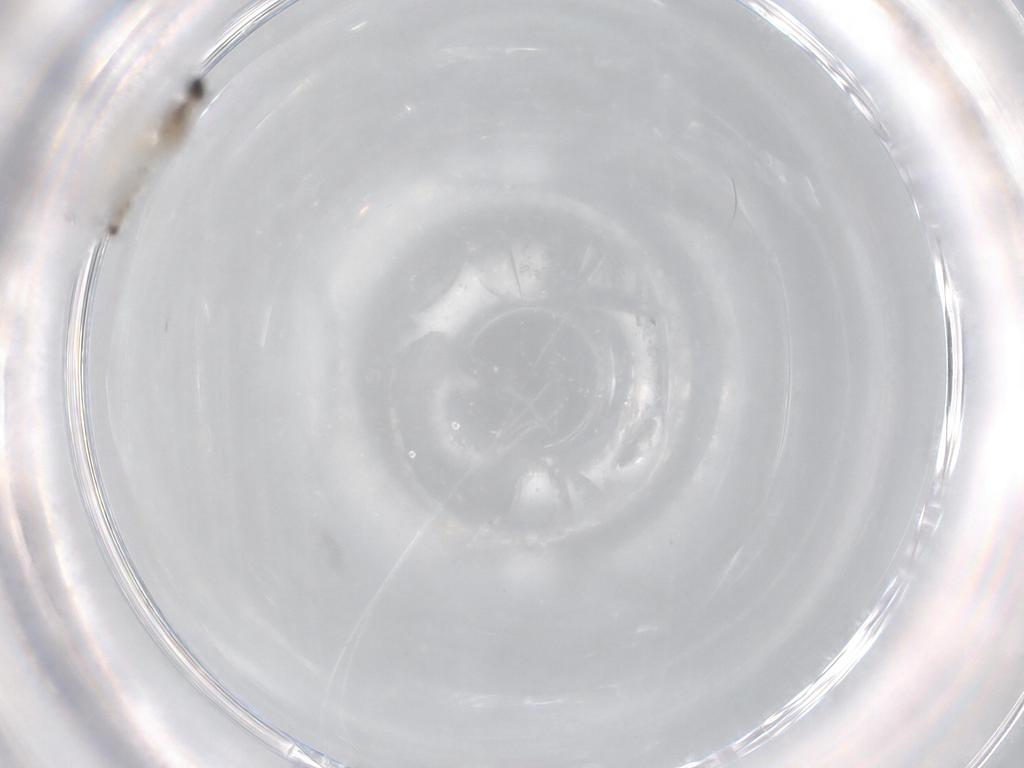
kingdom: Animalia
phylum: Arthropoda
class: Insecta
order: Diptera
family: Cecidomyiidae
